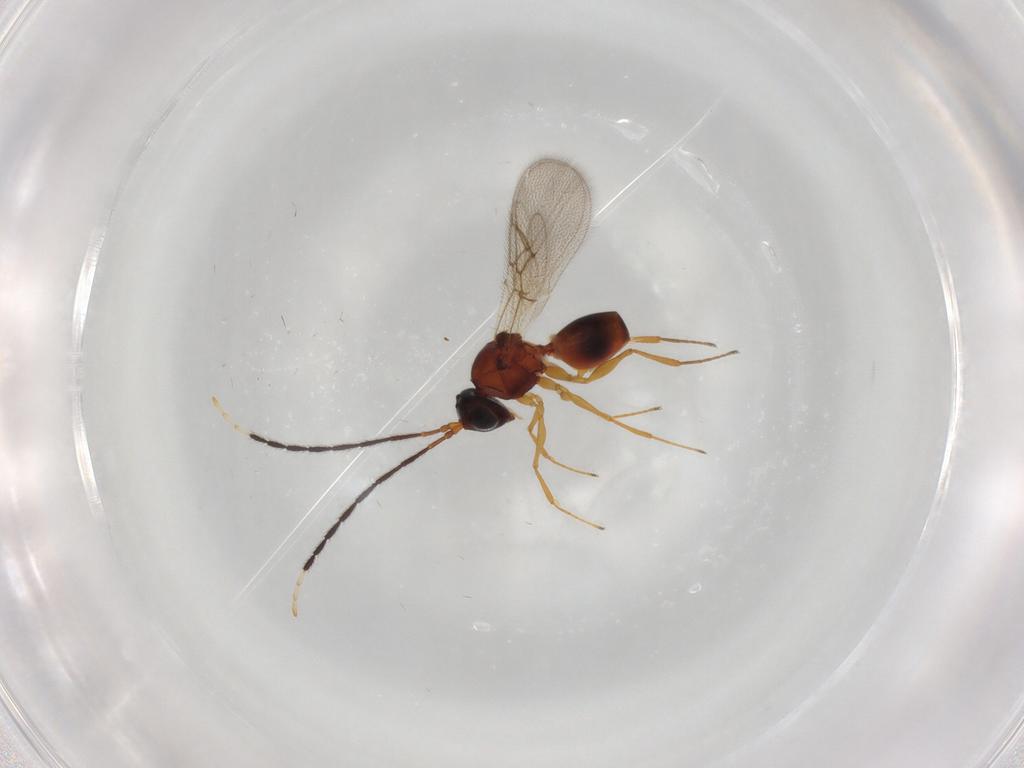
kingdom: Animalia
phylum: Arthropoda
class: Insecta
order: Hymenoptera
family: Figitidae
